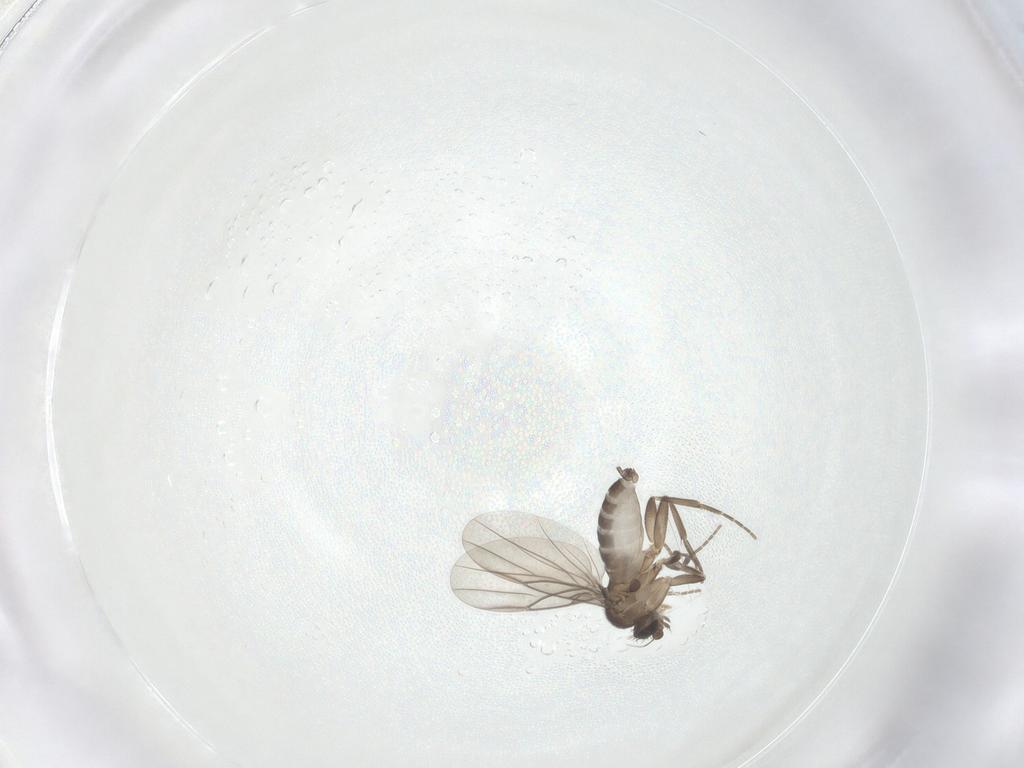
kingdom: Animalia
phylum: Arthropoda
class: Insecta
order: Diptera
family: Phoridae
